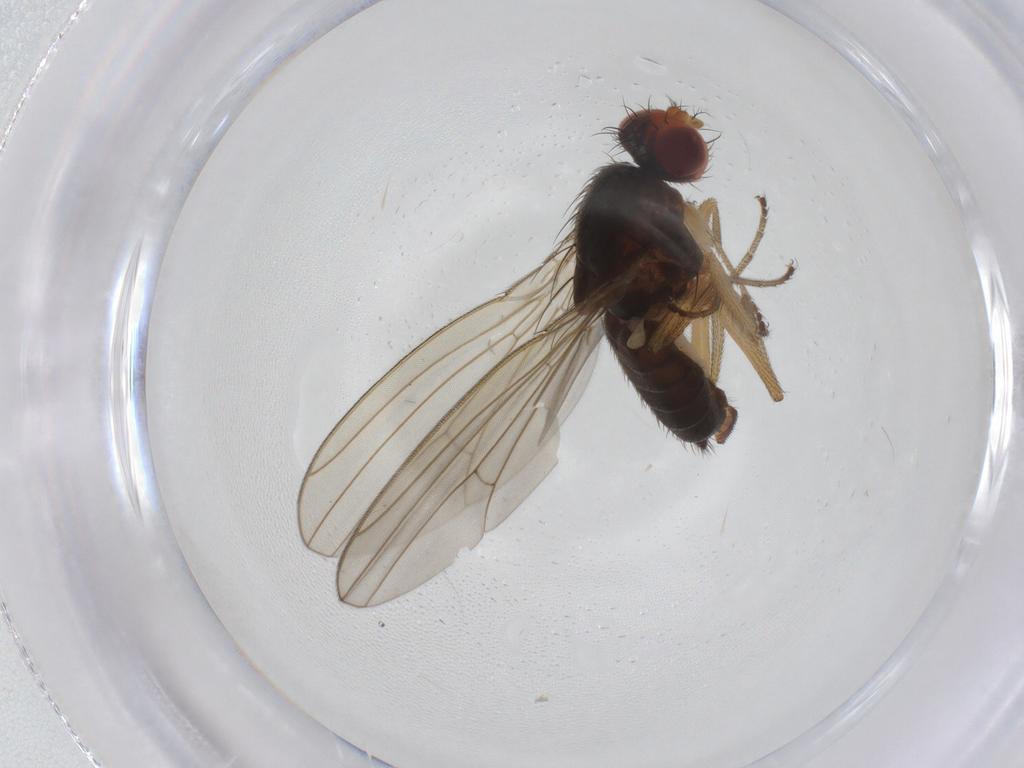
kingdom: Animalia
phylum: Arthropoda
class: Insecta
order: Diptera
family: Drosophilidae
